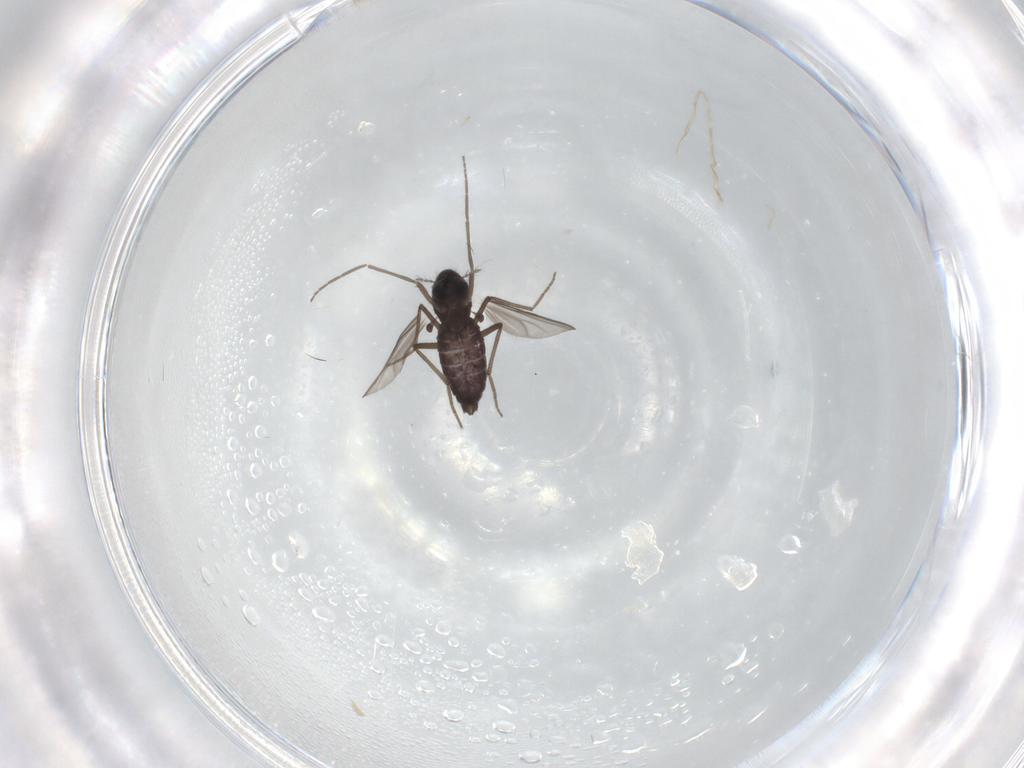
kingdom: Animalia
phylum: Arthropoda
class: Insecta
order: Diptera
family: Chironomidae
